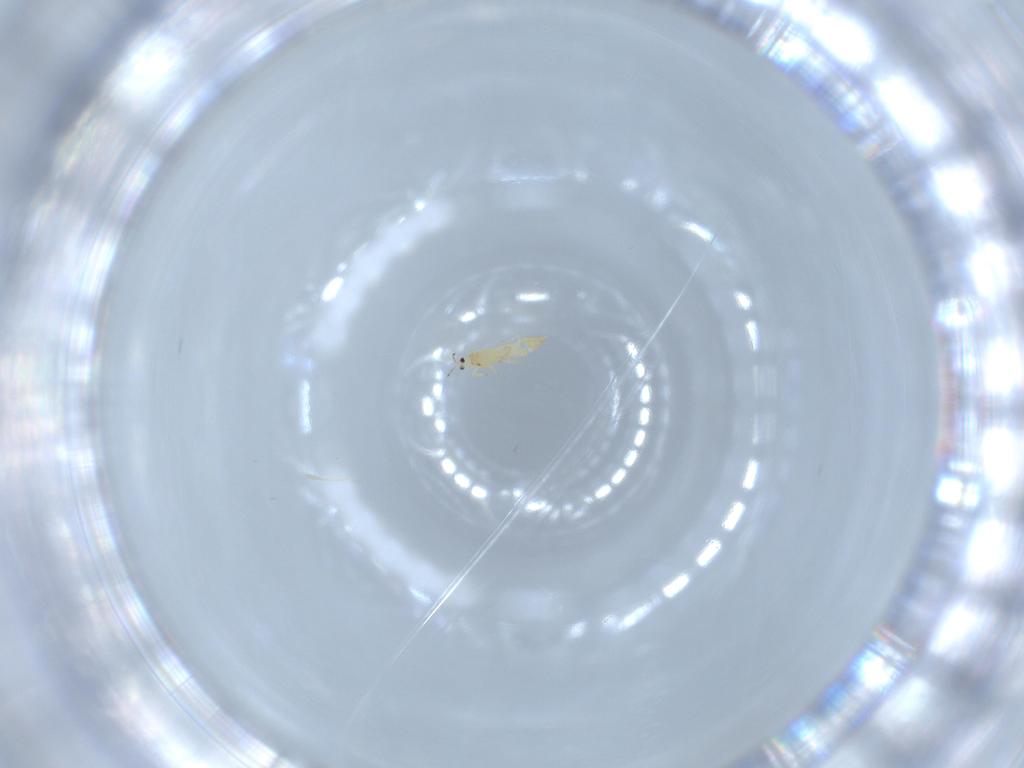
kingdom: Animalia
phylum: Arthropoda
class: Insecta
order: Thysanoptera
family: Thripidae
